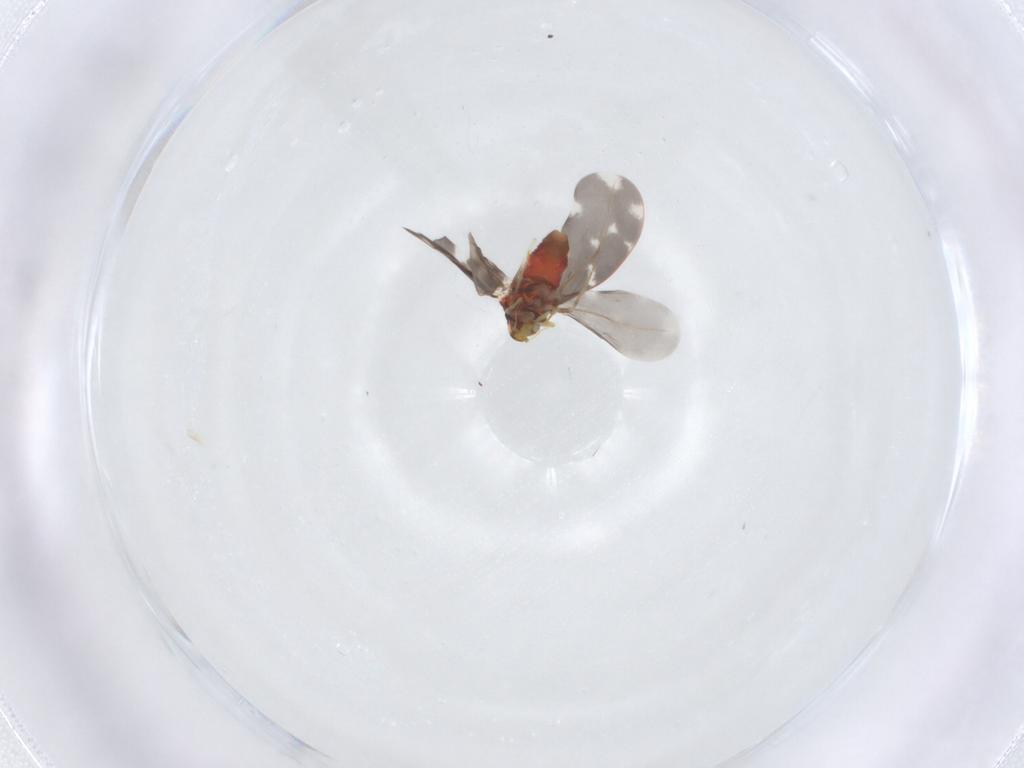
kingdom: Animalia
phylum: Arthropoda
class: Insecta
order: Hemiptera
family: Aleyrodidae
